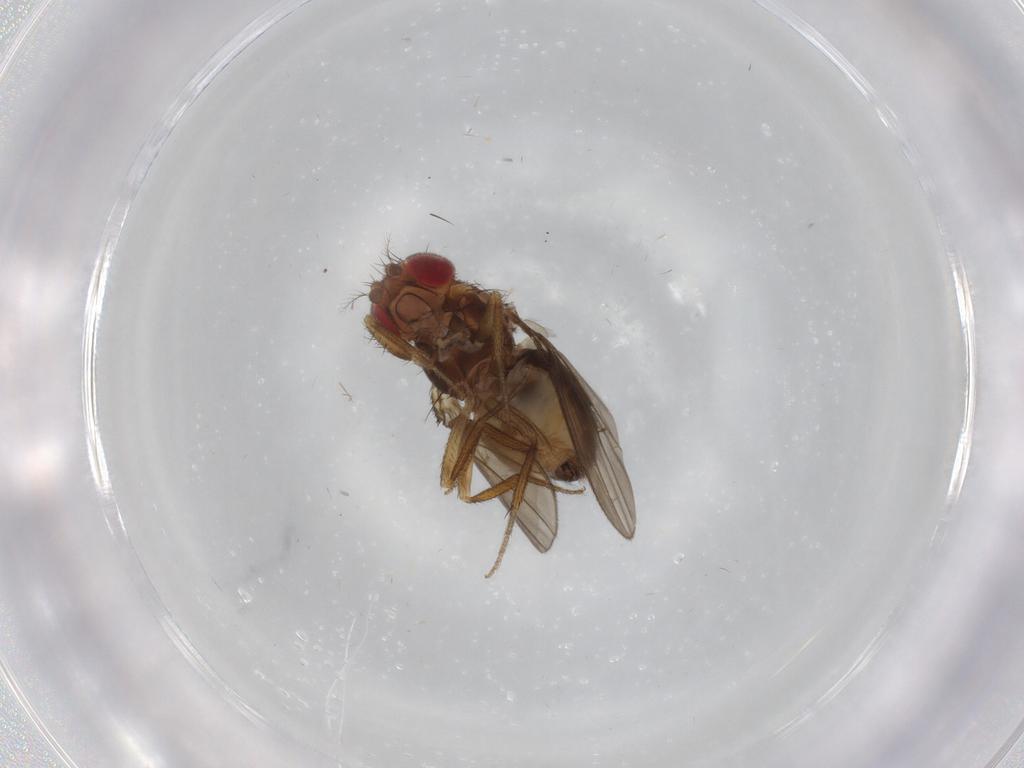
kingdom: Animalia
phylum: Arthropoda
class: Insecta
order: Diptera
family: Drosophilidae
